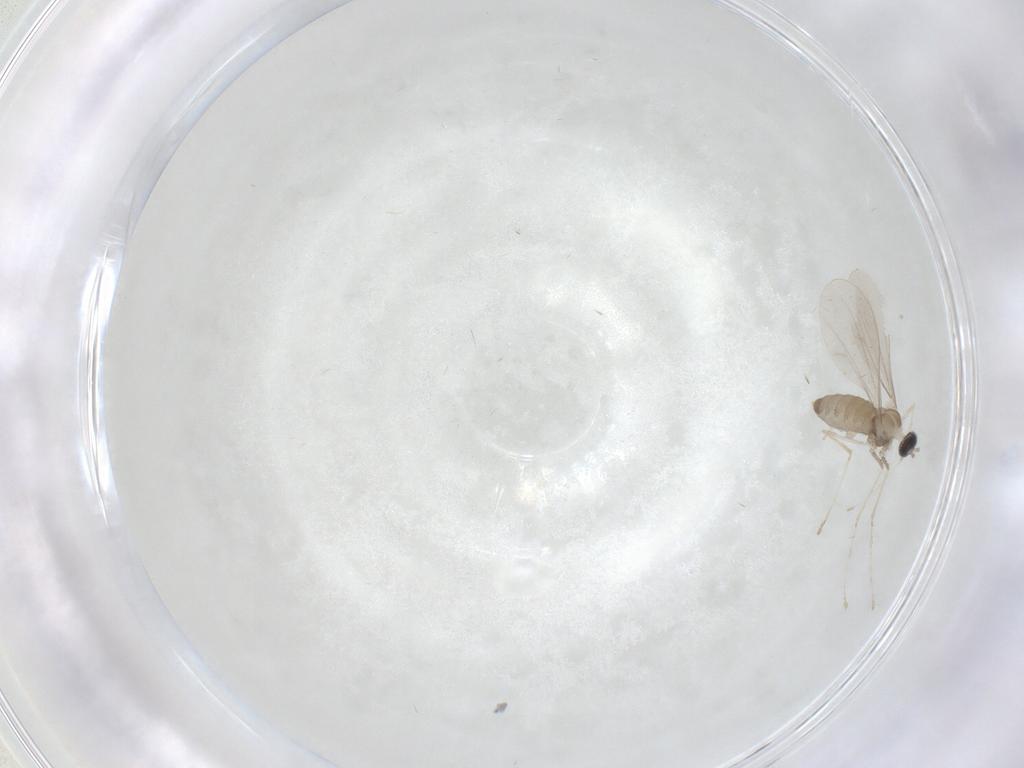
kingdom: Animalia
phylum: Arthropoda
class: Insecta
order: Diptera
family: Cecidomyiidae
